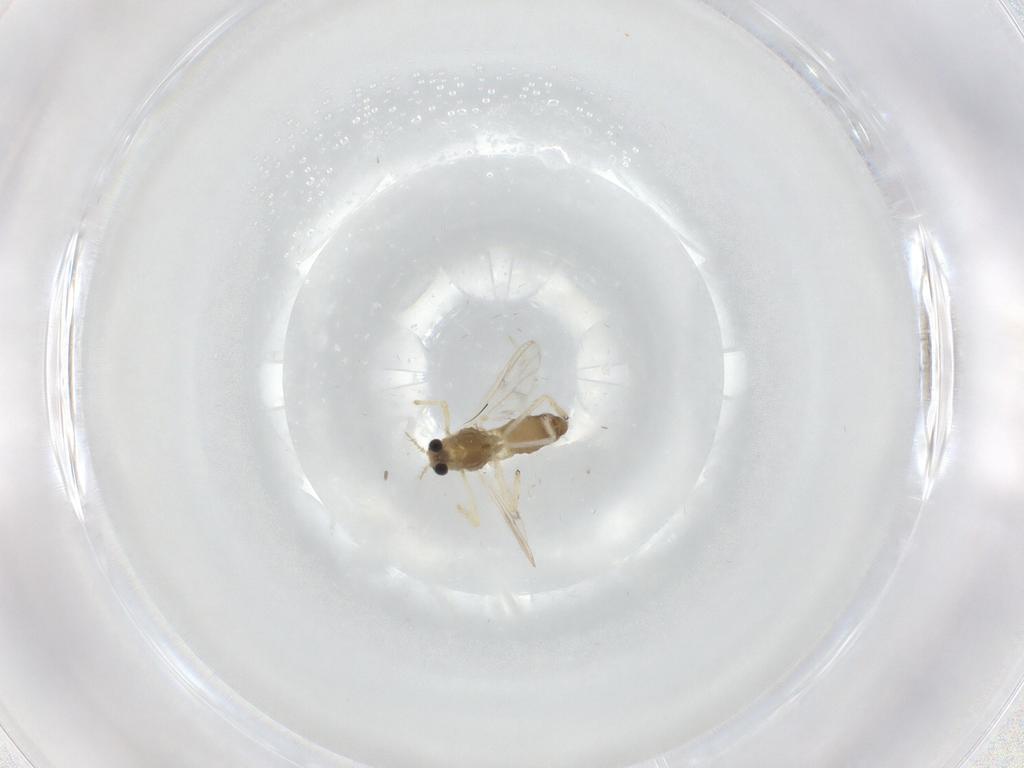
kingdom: Animalia
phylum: Arthropoda
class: Insecta
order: Diptera
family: Chironomidae
